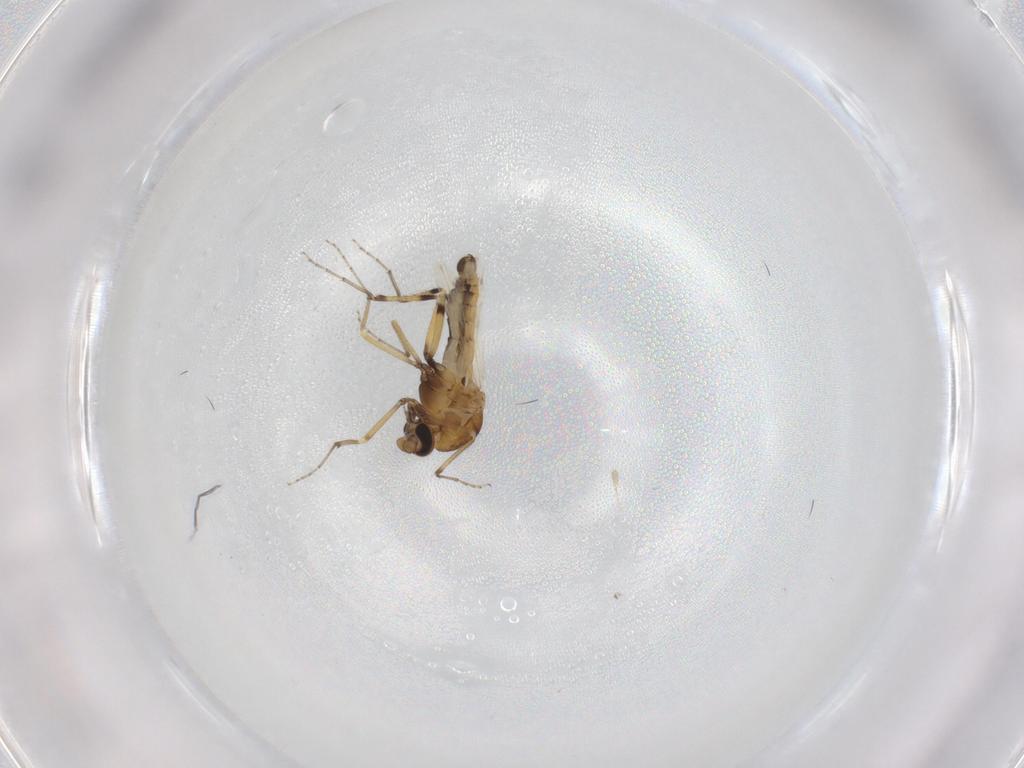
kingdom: Animalia
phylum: Arthropoda
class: Insecta
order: Diptera
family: Ceratopogonidae
